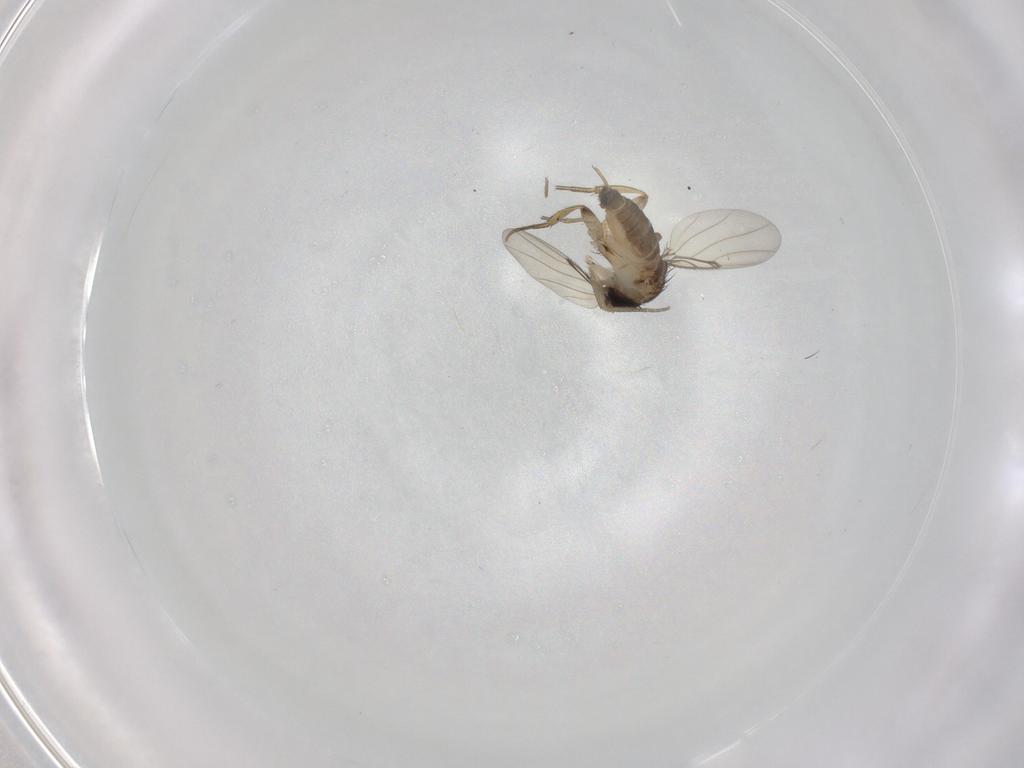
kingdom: Animalia
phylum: Arthropoda
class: Insecta
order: Diptera
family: Phoridae
